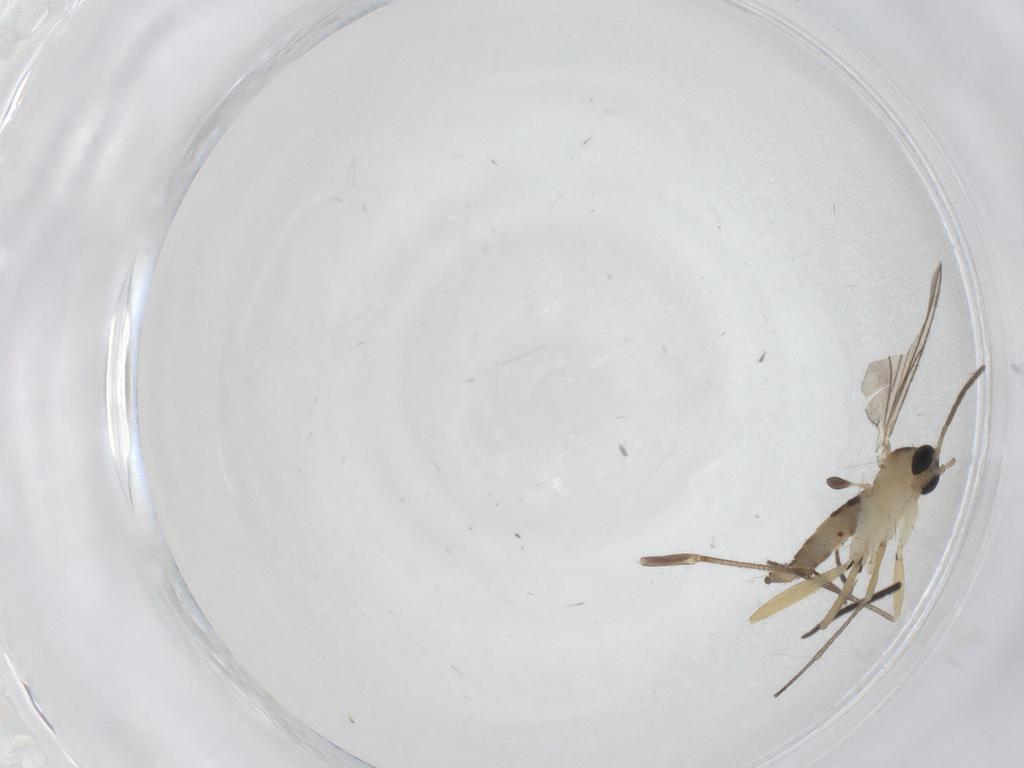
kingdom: Animalia
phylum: Arthropoda
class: Insecta
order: Diptera
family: Sciaridae
